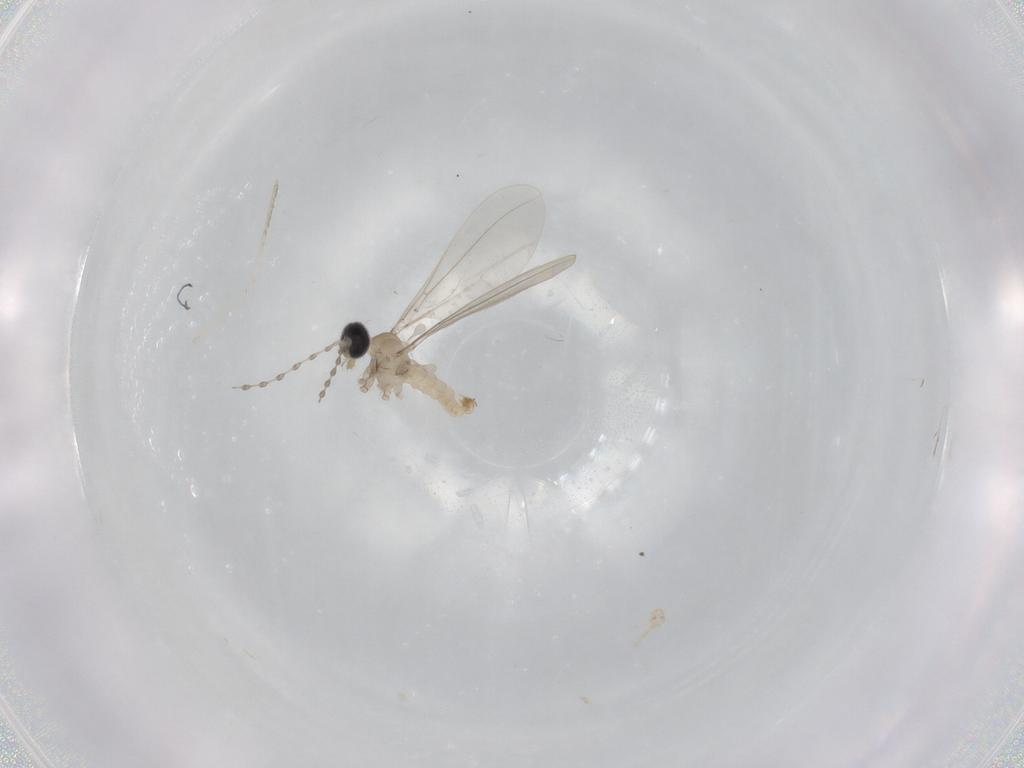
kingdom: Animalia
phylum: Arthropoda
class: Insecta
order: Diptera
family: Cecidomyiidae
